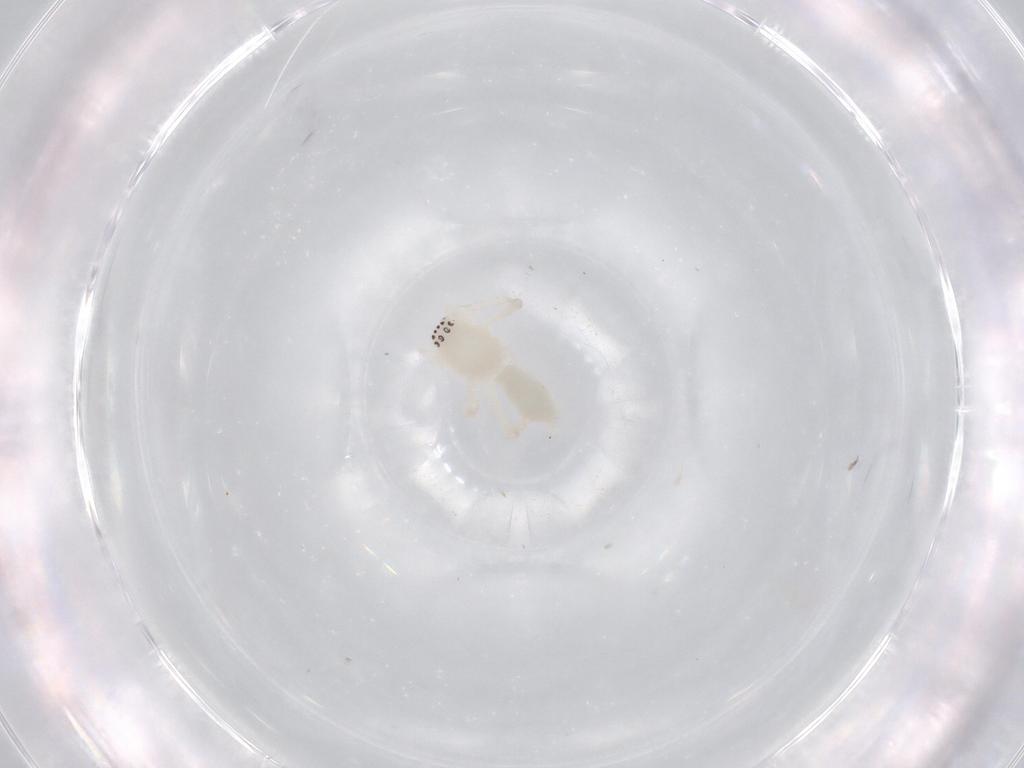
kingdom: Animalia
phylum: Arthropoda
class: Arachnida
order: Araneae
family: Anyphaenidae
